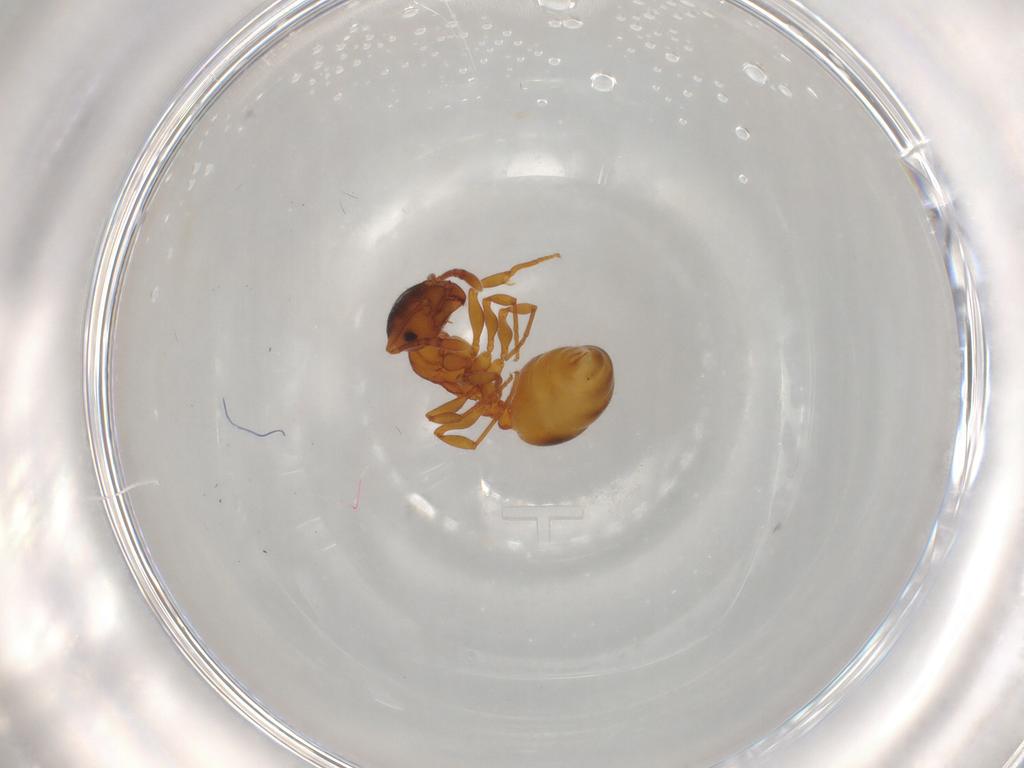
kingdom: Animalia
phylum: Arthropoda
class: Insecta
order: Hymenoptera
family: Formicidae
